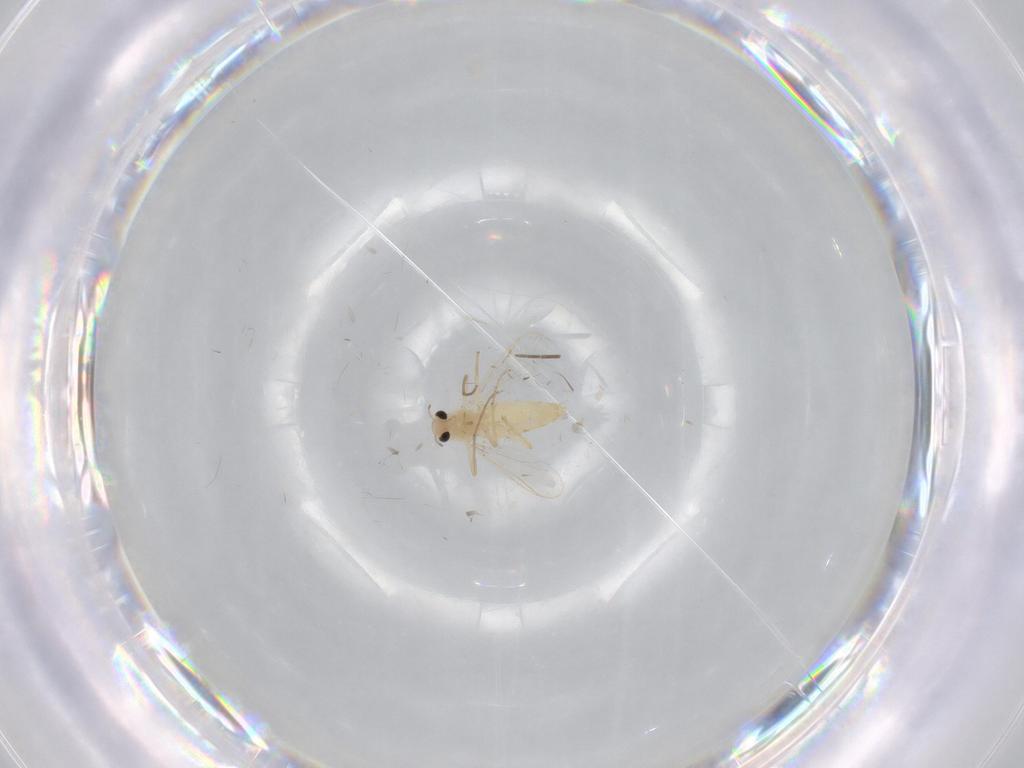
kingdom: Animalia
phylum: Arthropoda
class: Insecta
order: Diptera
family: Chironomidae
